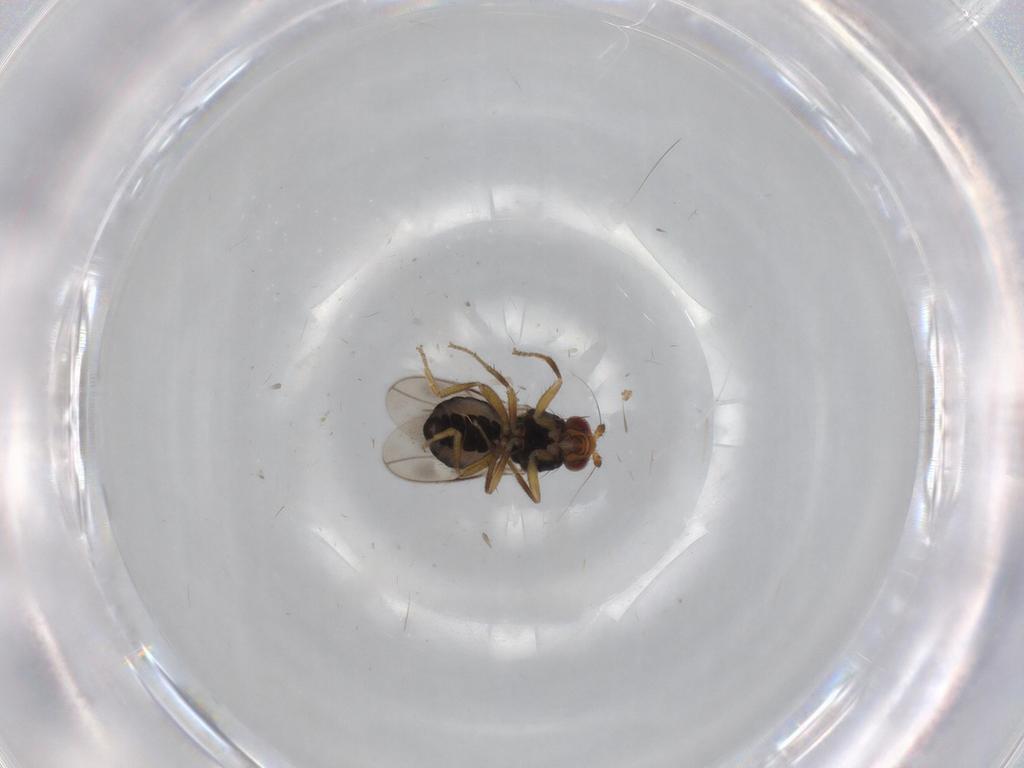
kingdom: Animalia
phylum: Arthropoda
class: Insecta
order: Diptera
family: Sphaeroceridae
